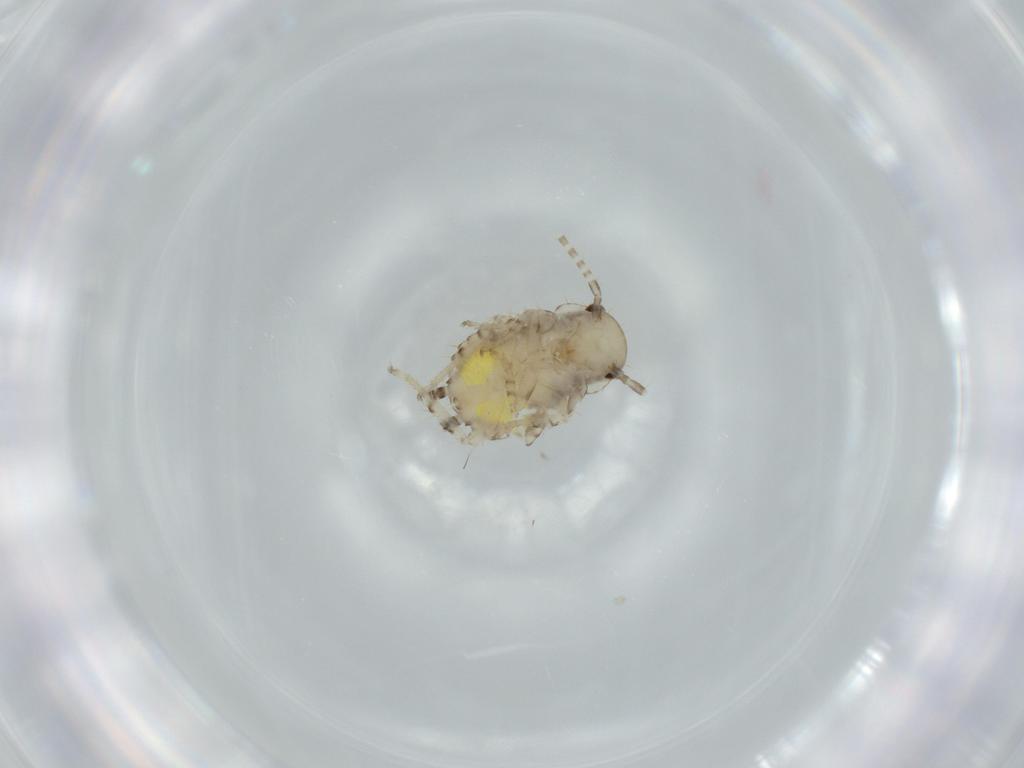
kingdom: Animalia
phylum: Arthropoda
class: Insecta
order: Blattodea
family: Ectobiidae
